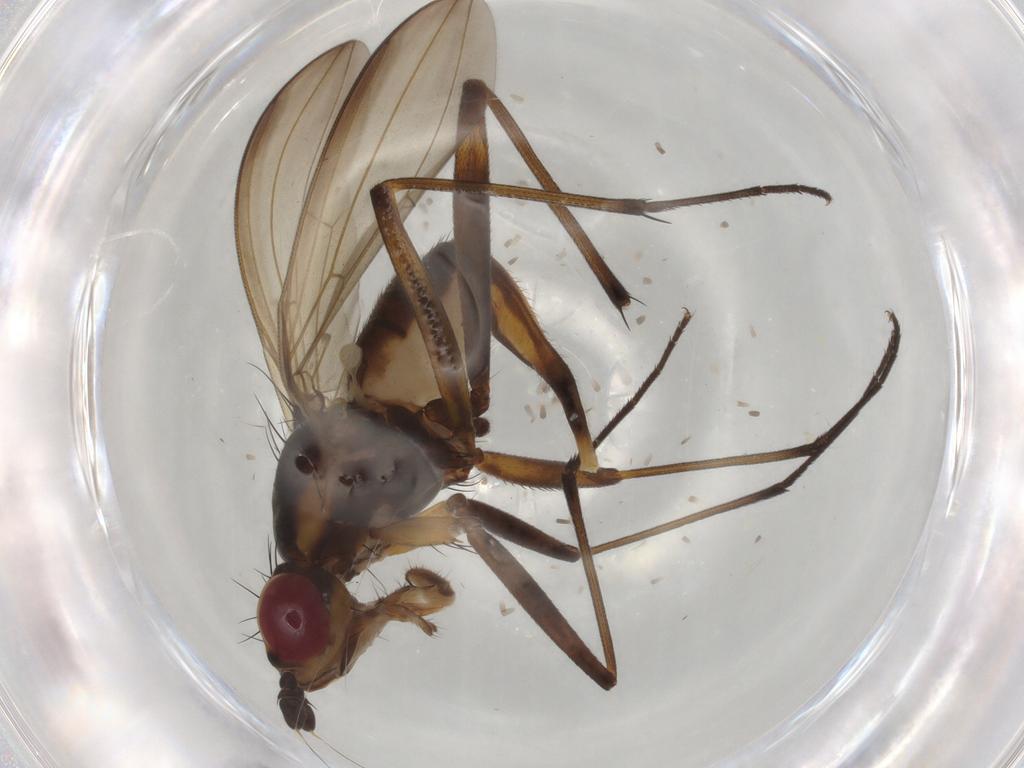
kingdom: Animalia
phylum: Arthropoda
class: Insecta
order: Diptera
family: Neriidae
